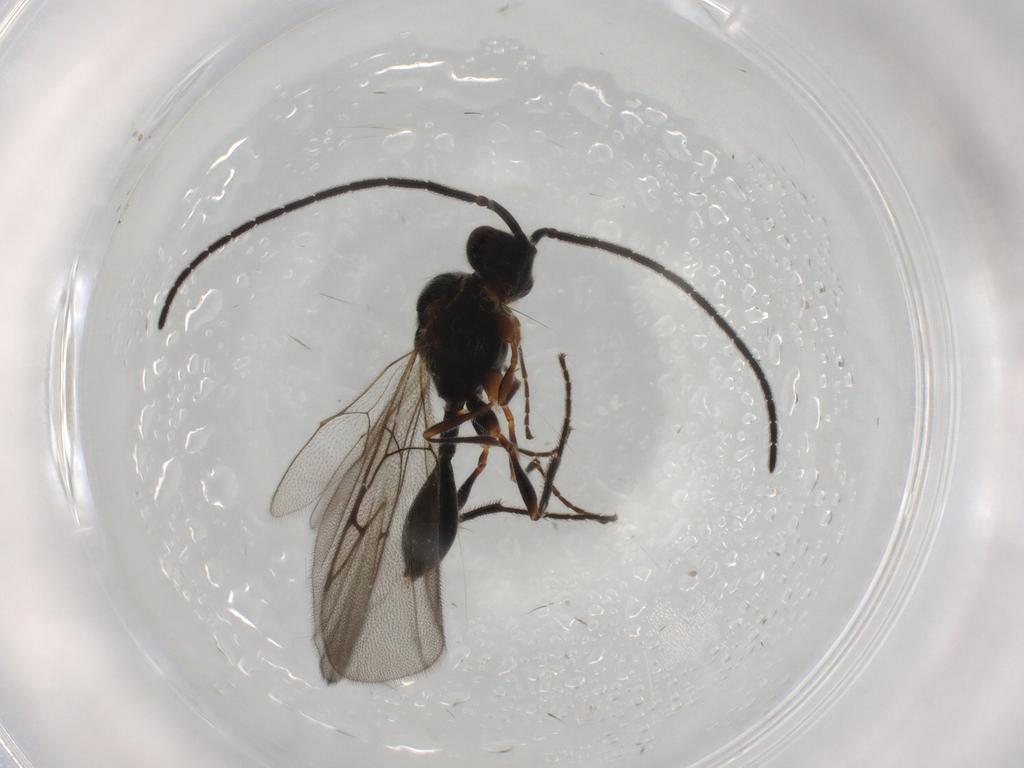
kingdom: Animalia
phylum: Arthropoda
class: Insecta
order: Hymenoptera
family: Diapriidae
